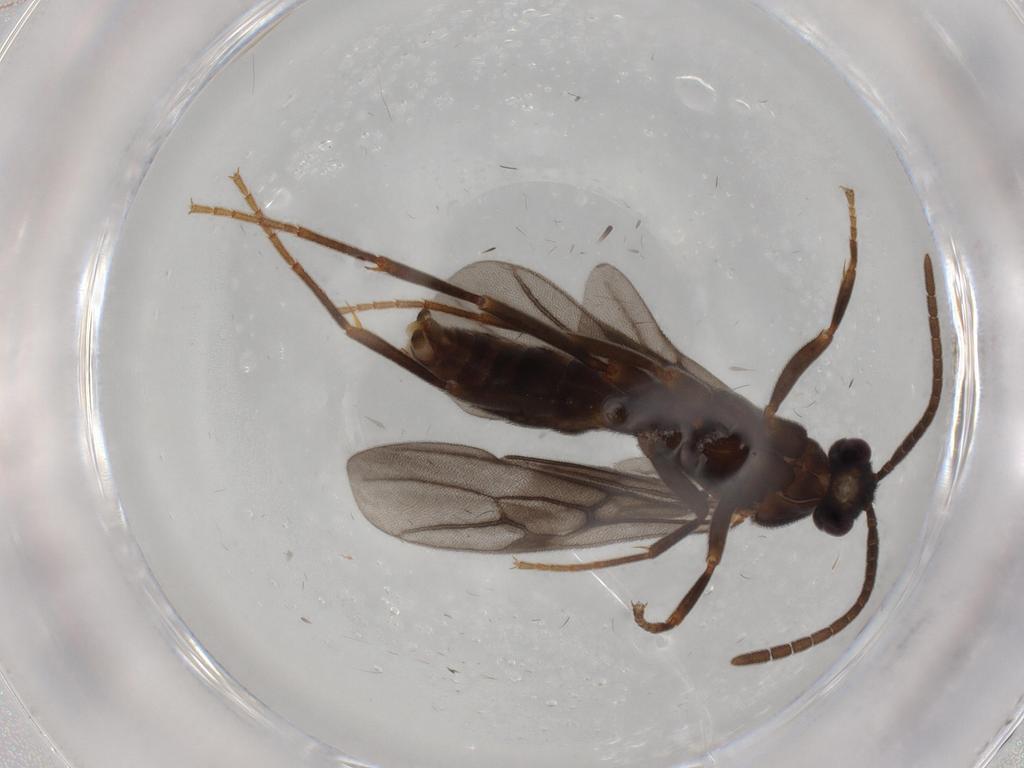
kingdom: Animalia
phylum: Arthropoda
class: Insecta
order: Hymenoptera
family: Formicidae
